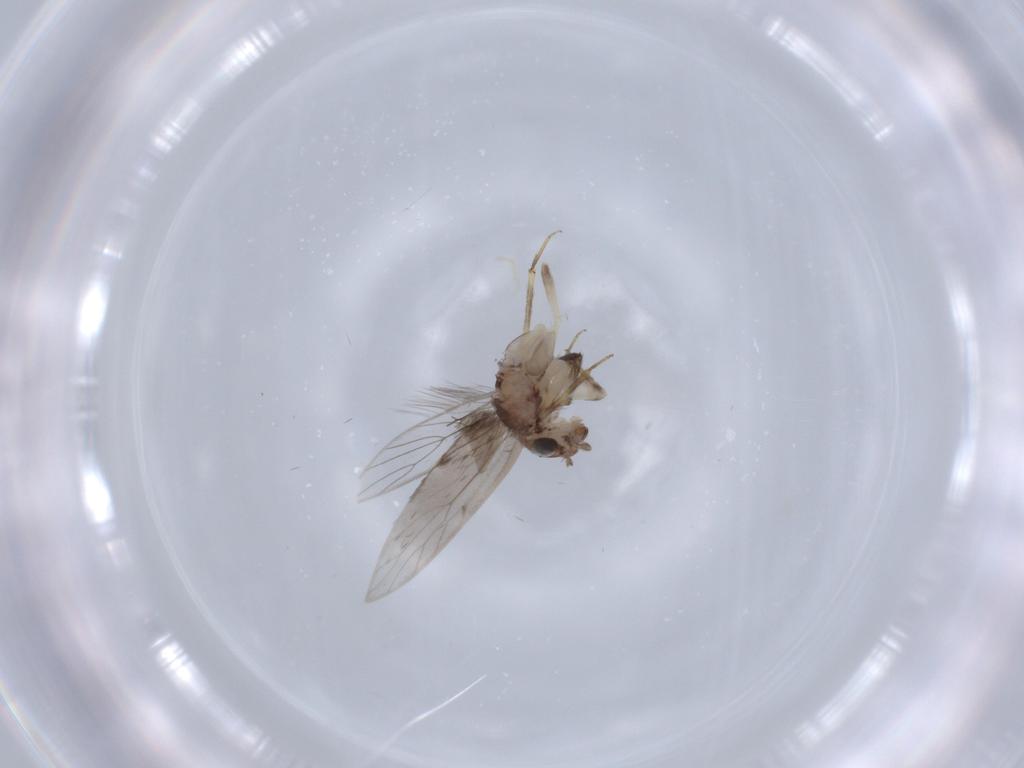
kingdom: Animalia
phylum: Arthropoda
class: Insecta
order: Psocodea
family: Lepidopsocidae
